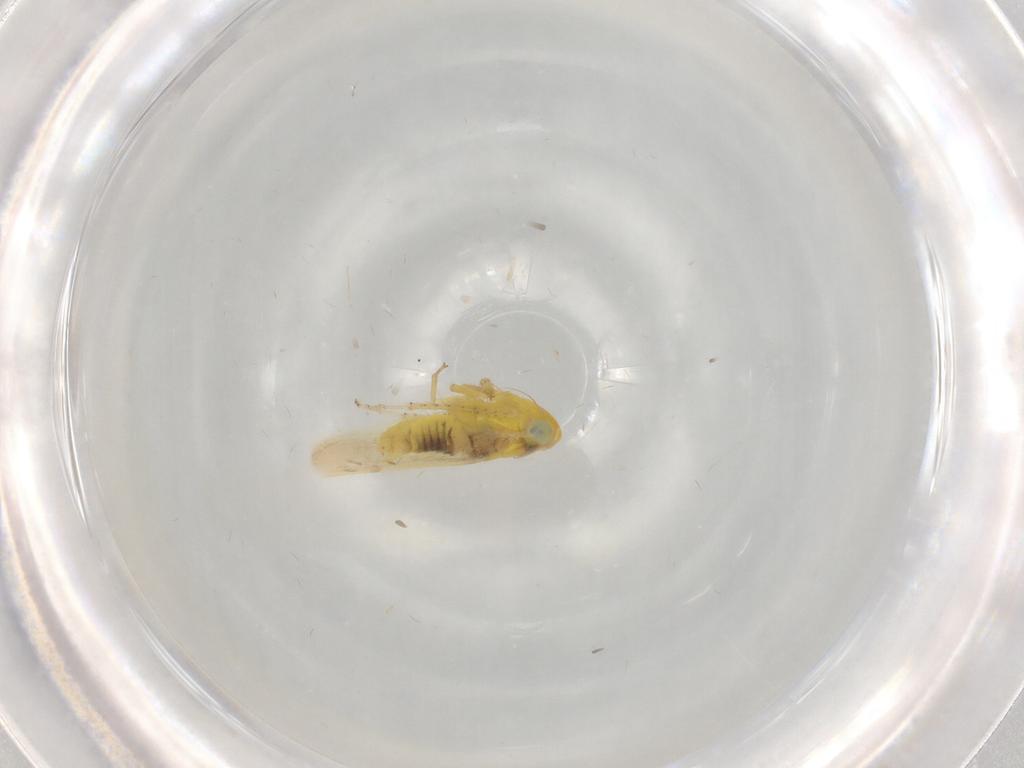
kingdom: Animalia
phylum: Arthropoda
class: Insecta
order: Hemiptera
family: Cicadellidae
